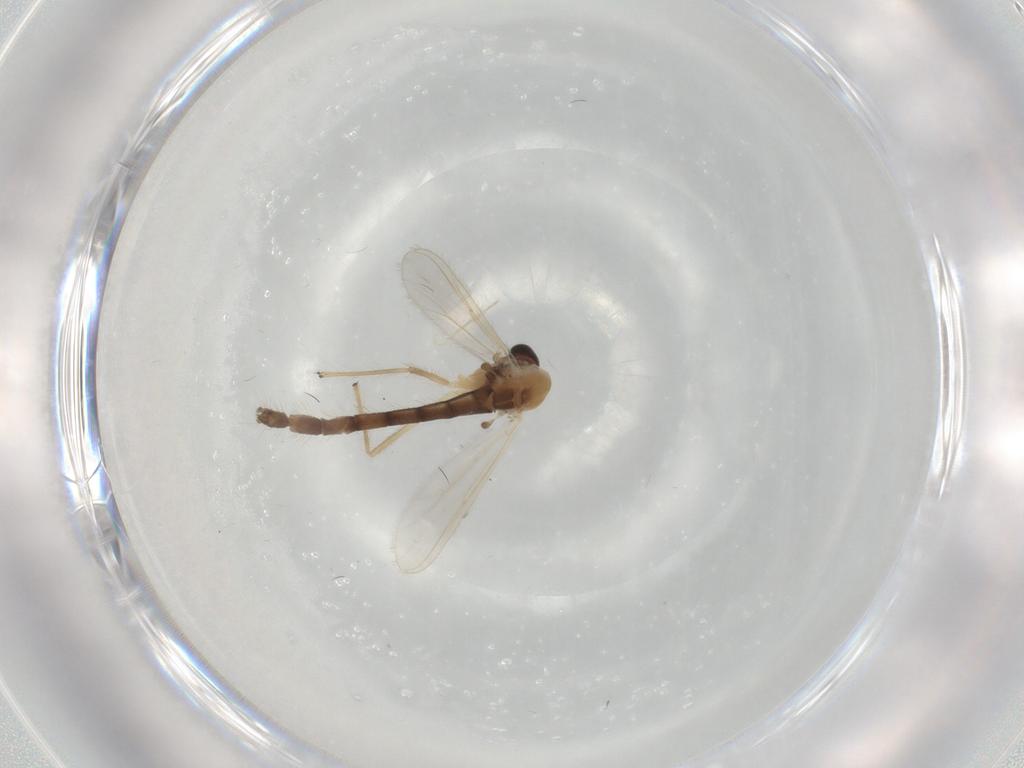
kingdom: Animalia
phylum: Arthropoda
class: Insecta
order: Diptera
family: Chironomidae
